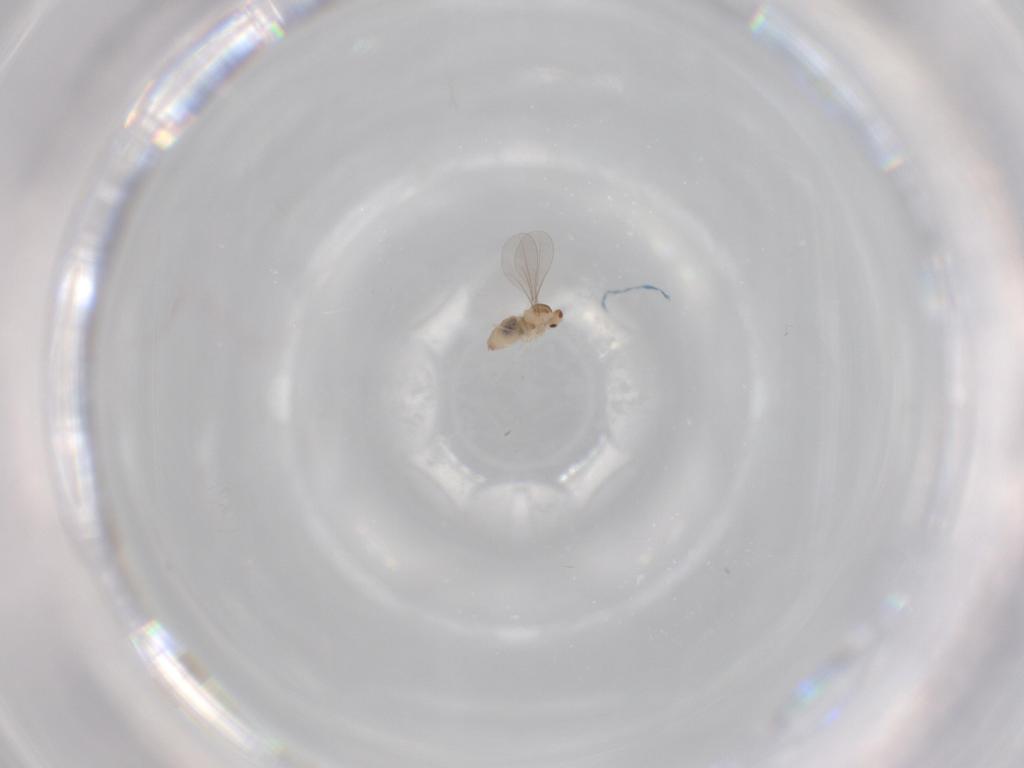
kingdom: Animalia
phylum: Arthropoda
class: Insecta
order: Diptera
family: Cecidomyiidae
